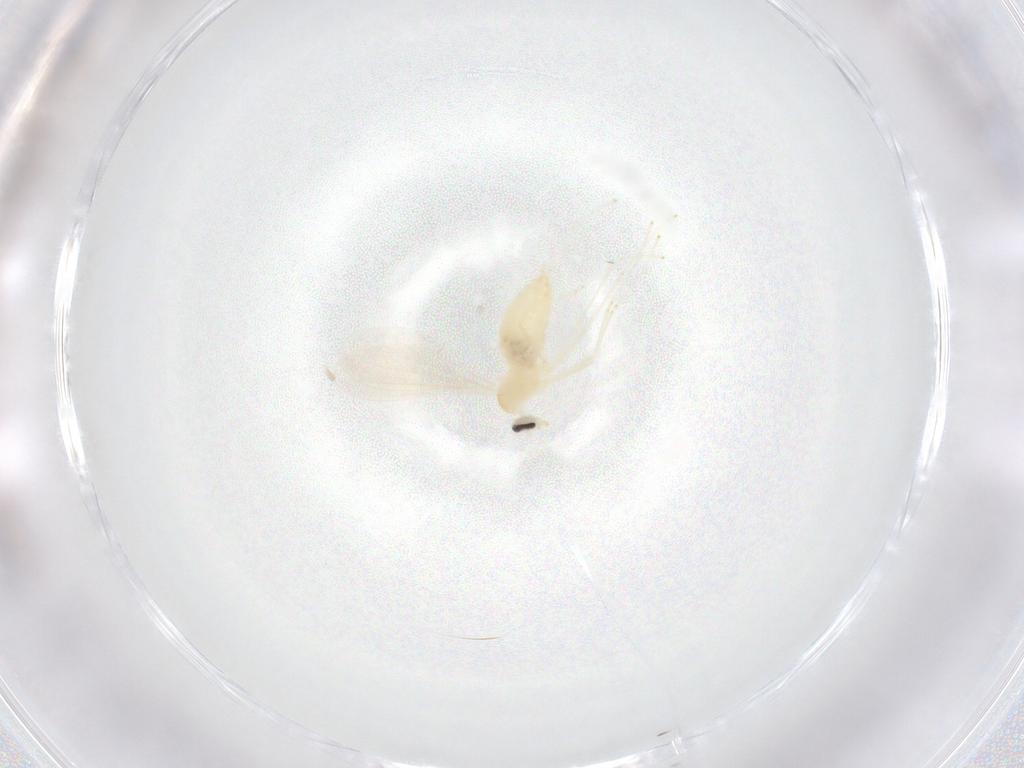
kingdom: Animalia
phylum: Arthropoda
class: Insecta
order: Diptera
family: Cecidomyiidae
